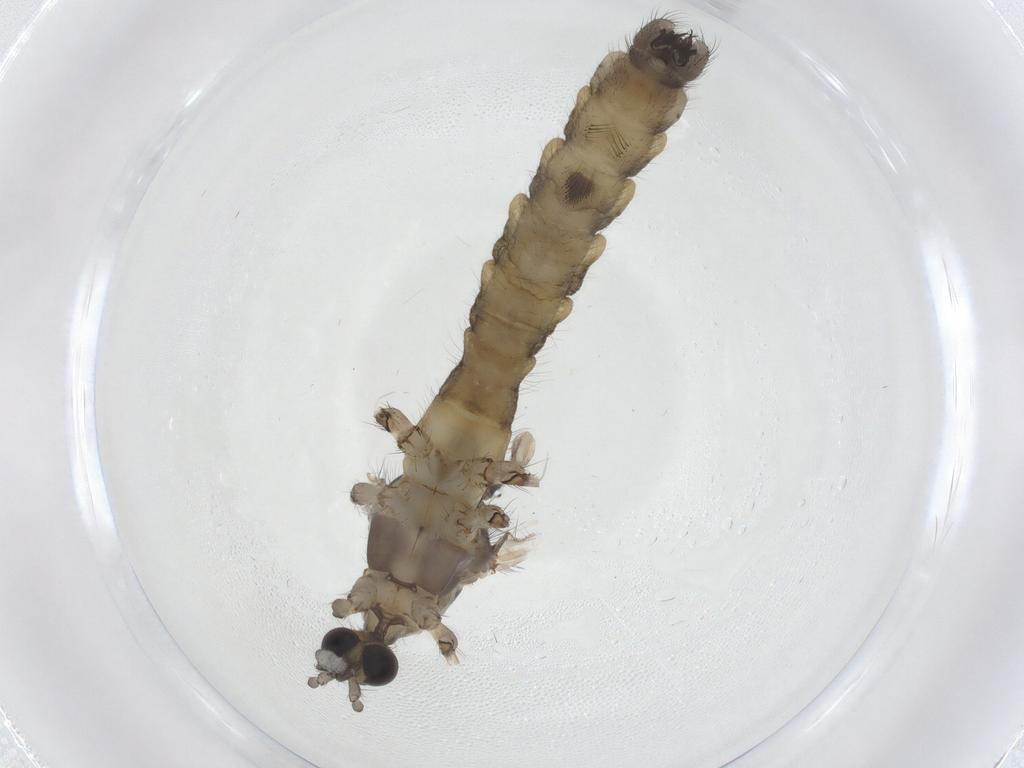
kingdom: Animalia
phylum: Arthropoda
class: Insecta
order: Diptera
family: Limoniidae
